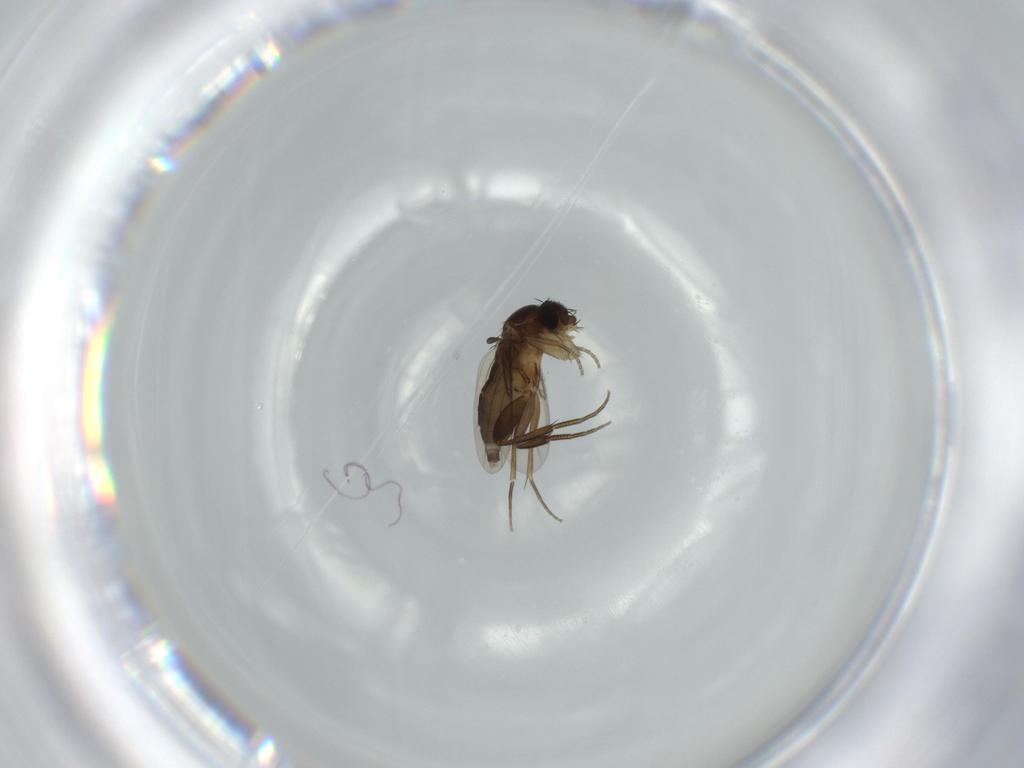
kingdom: Animalia
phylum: Arthropoda
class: Insecta
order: Diptera
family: Phoridae
